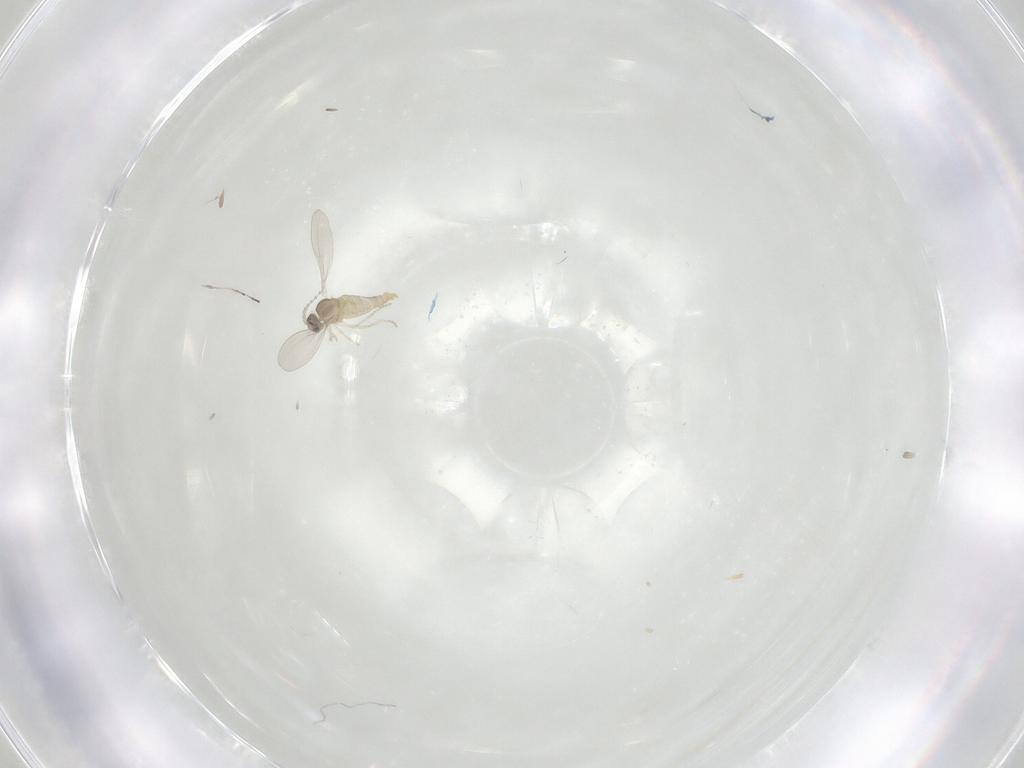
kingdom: Animalia
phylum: Arthropoda
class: Insecta
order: Diptera
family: Cecidomyiidae
